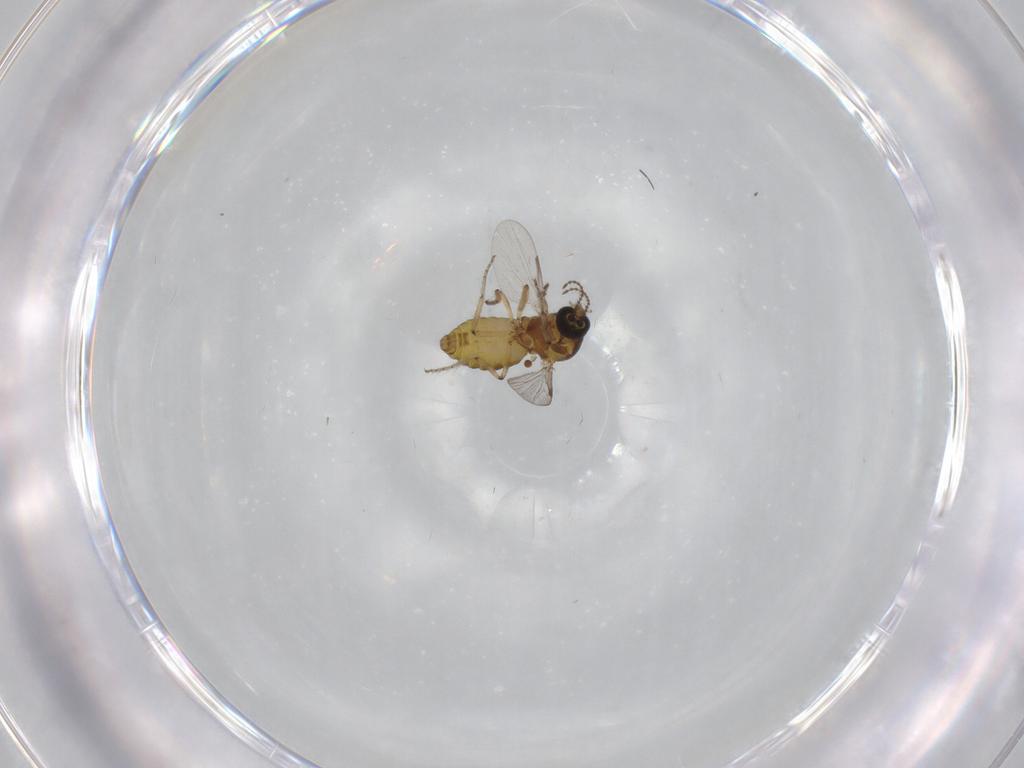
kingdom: Animalia
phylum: Arthropoda
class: Insecta
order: Diptera
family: Ceratopogonidae
